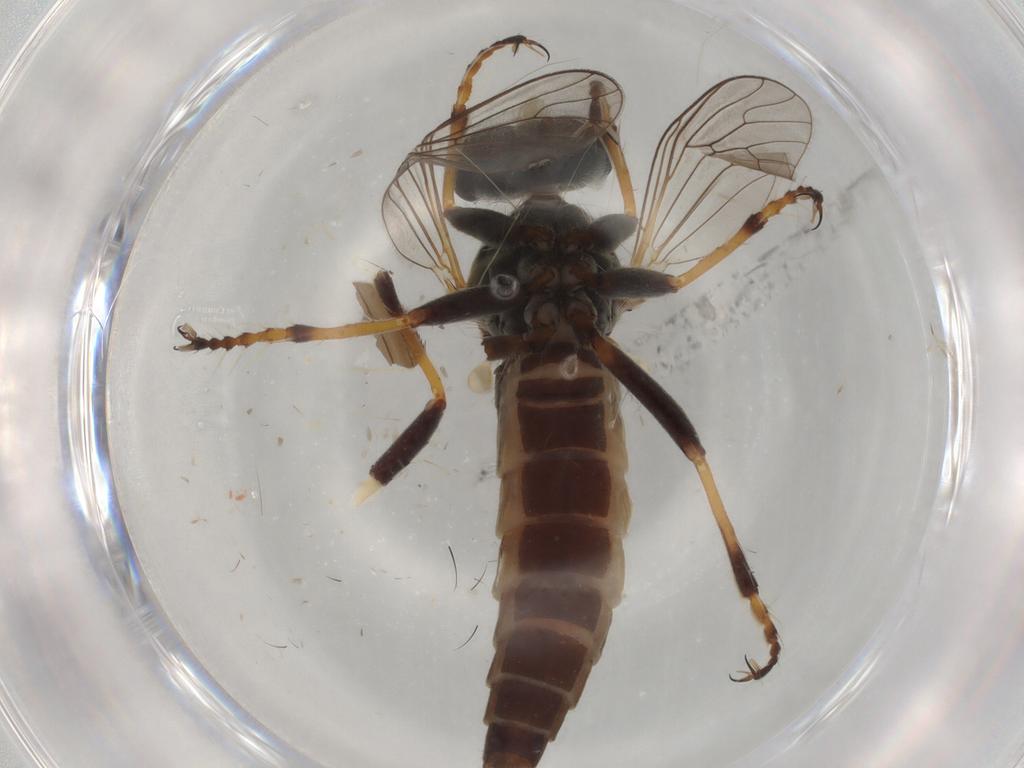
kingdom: Animalia
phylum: Arthropoda
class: Insecta
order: Diptera
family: Asilidae
